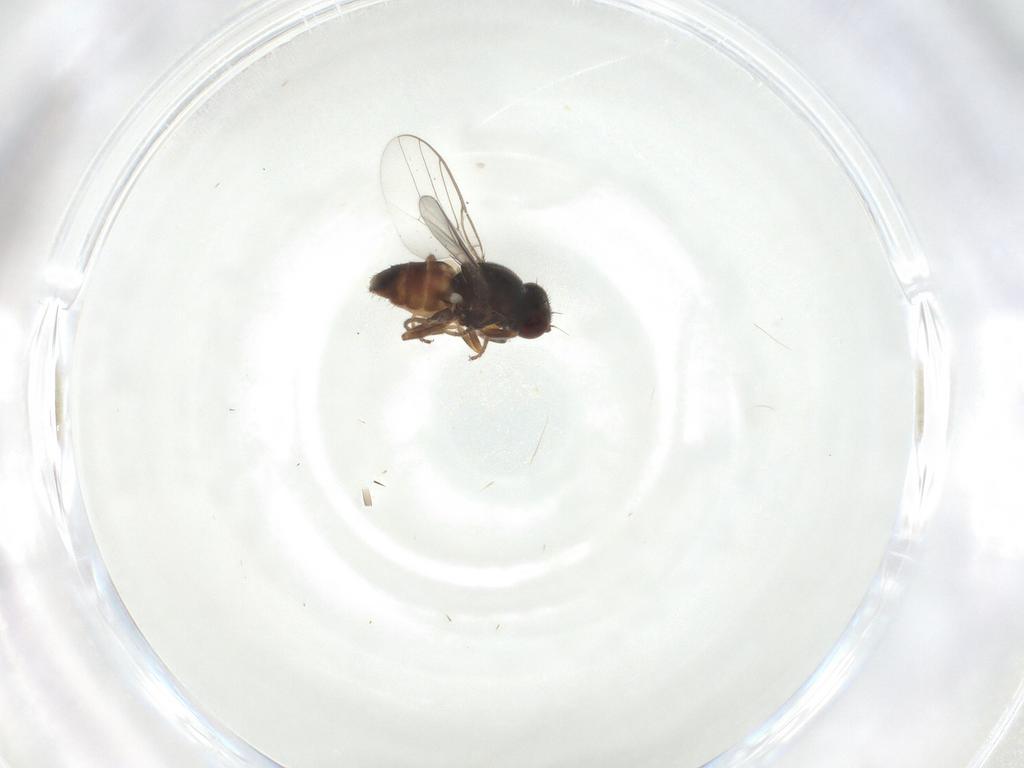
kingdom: Animalia
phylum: Arthropoda
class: Insecta
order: Diptera
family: Chloropidae
